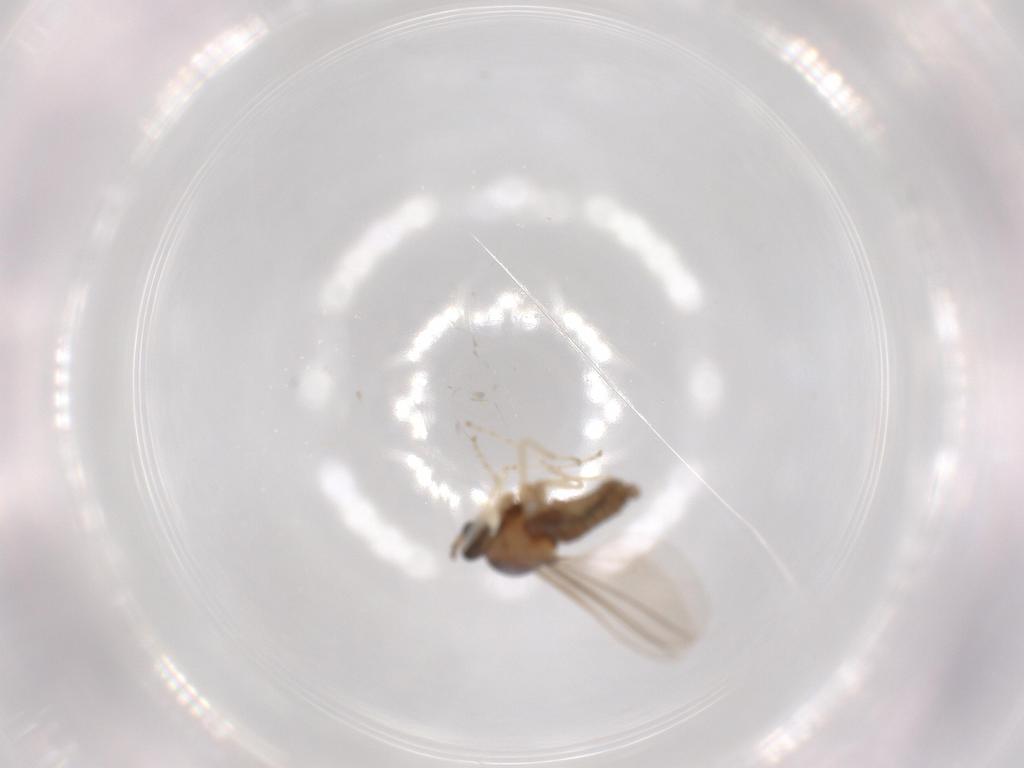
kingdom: Animalia
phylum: Arthropoda
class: Insecta
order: Diptera
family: Cecidomyiidae
